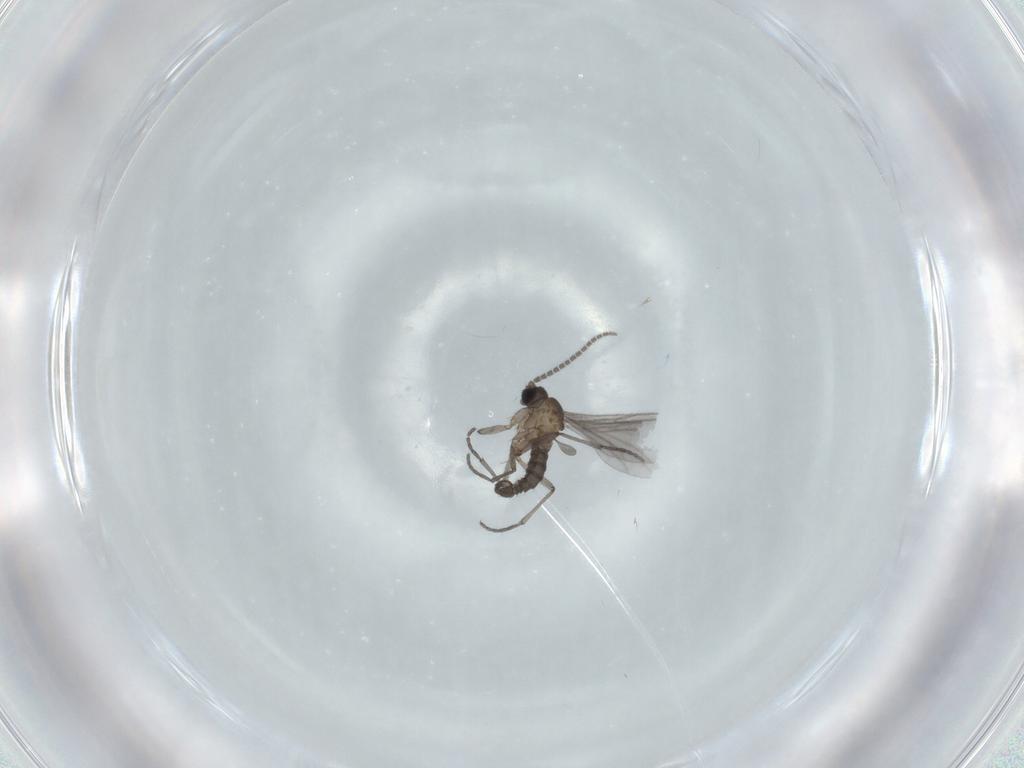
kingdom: Animalia
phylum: Arthropoda
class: Insecta
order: Diptera
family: Sciaridae
